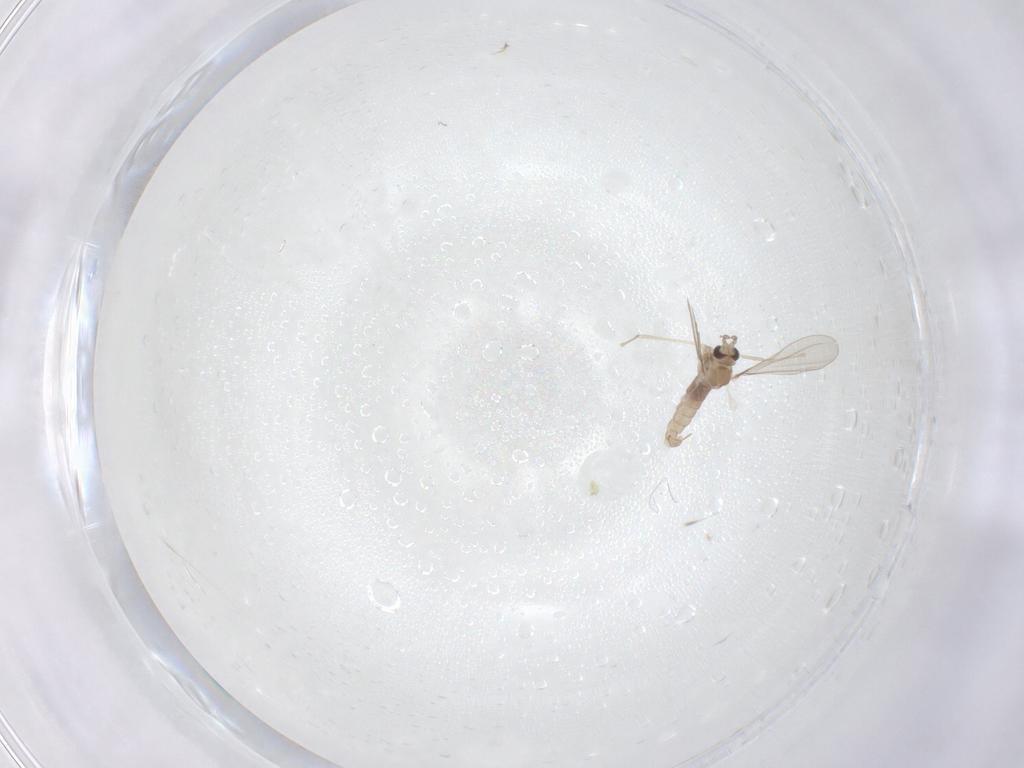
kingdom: Animalia
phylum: Arthropoda
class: Insecta
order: Diptera
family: Cecidomyiidae
